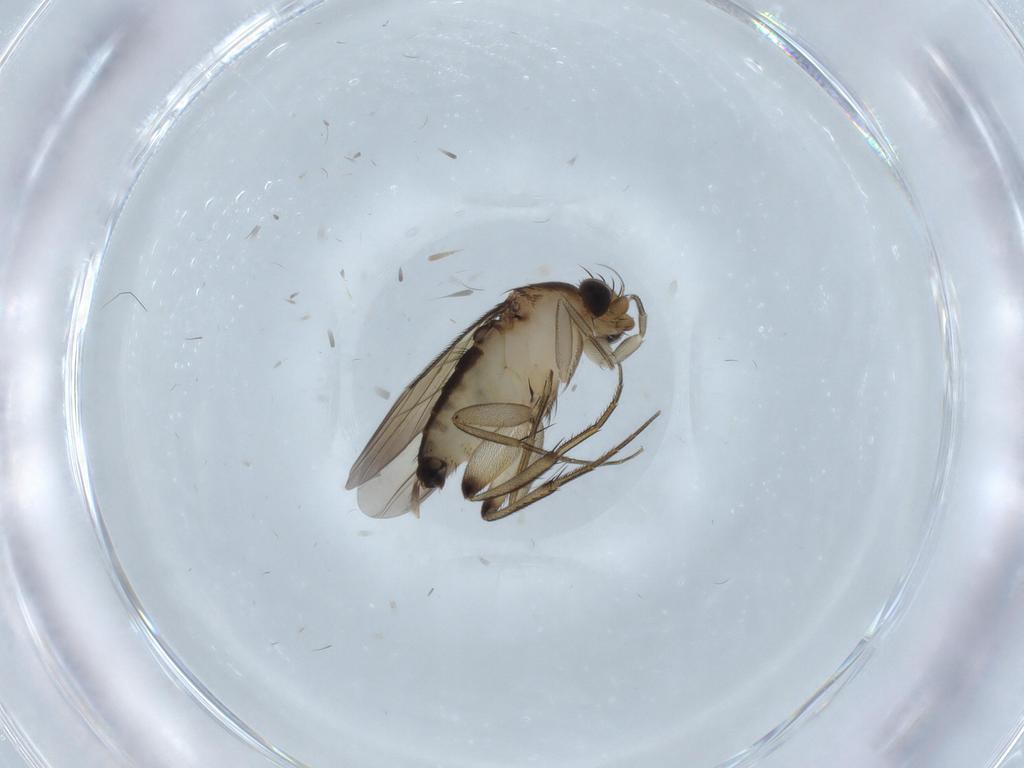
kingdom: Animalia
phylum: Arthropoda
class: Insecta
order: Diptera
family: Phoridae
